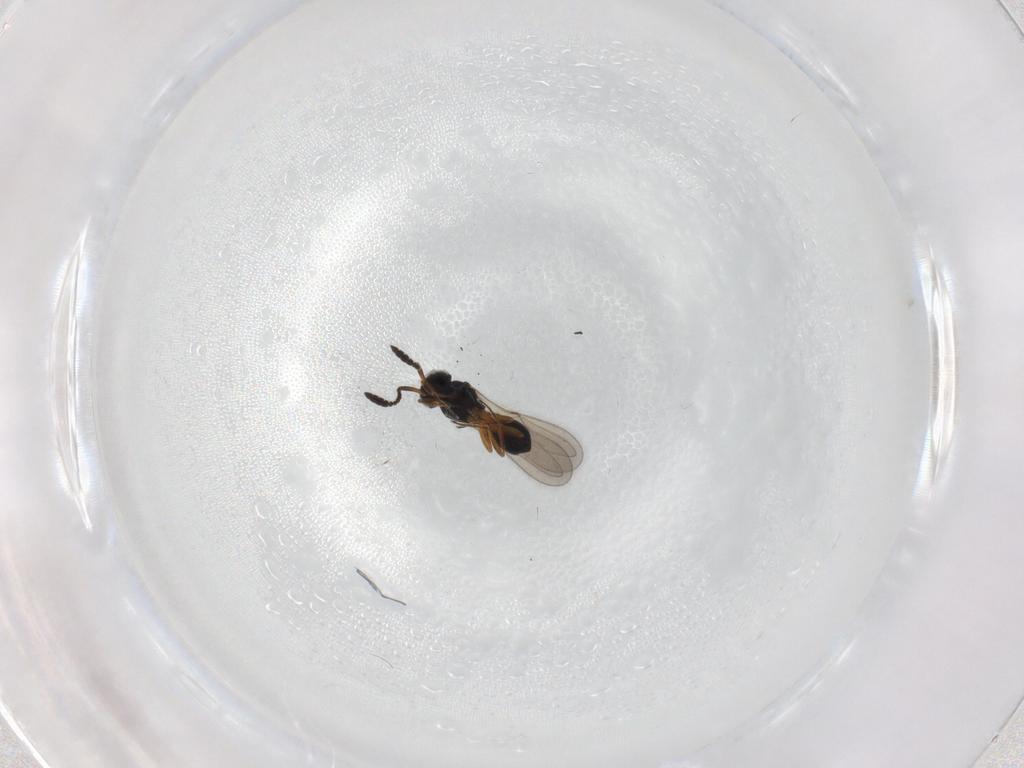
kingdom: Animalia
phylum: Arthropoda
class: Insecta
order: Hymenoptera
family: Scelionidae
